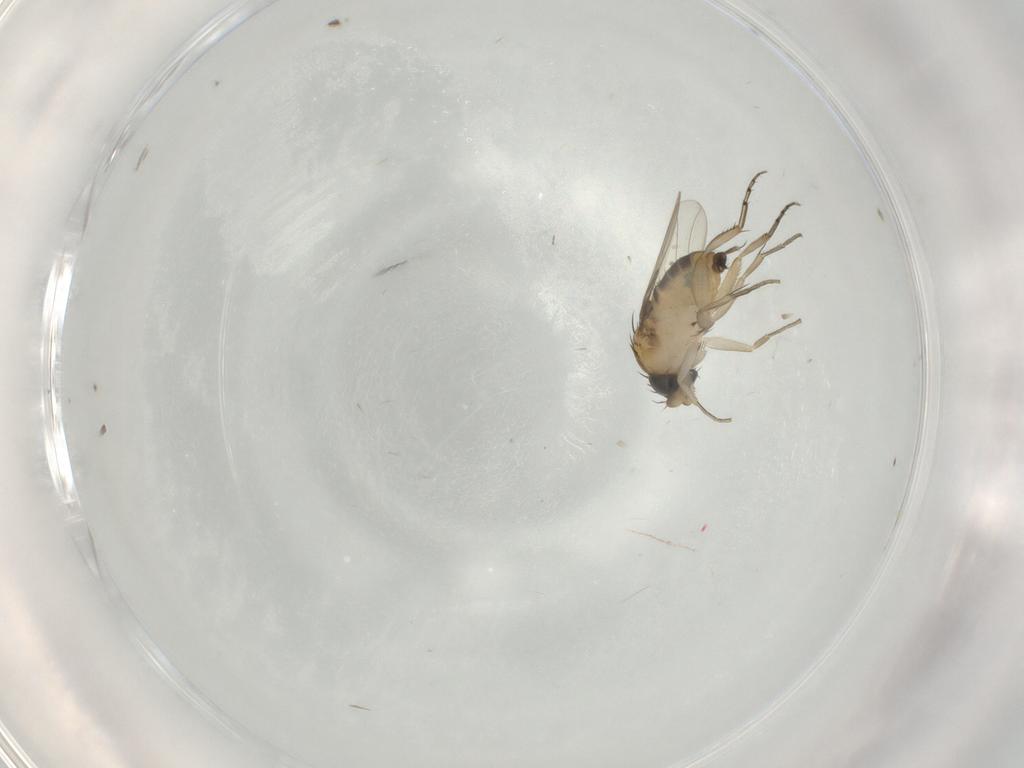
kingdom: Animalia
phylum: Arthropoda
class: Insecta
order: Diptera
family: Phoridae
